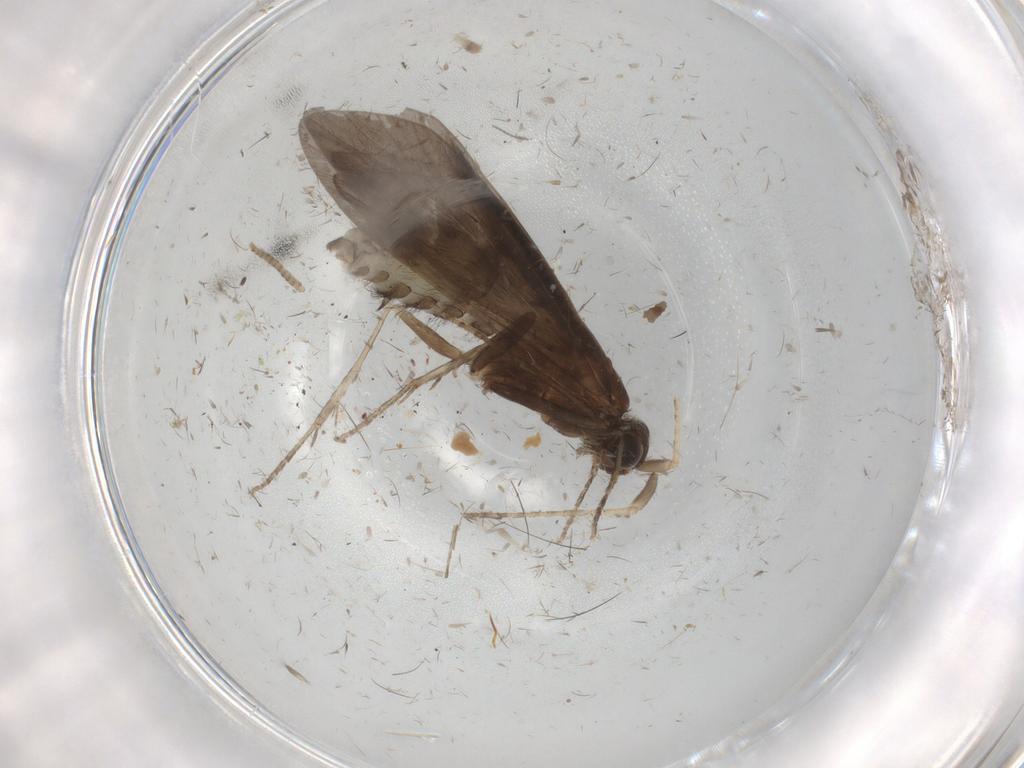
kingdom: Animalia
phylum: Arthropoda
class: Insecta
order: Trichoptera
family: Helicopsychidae
